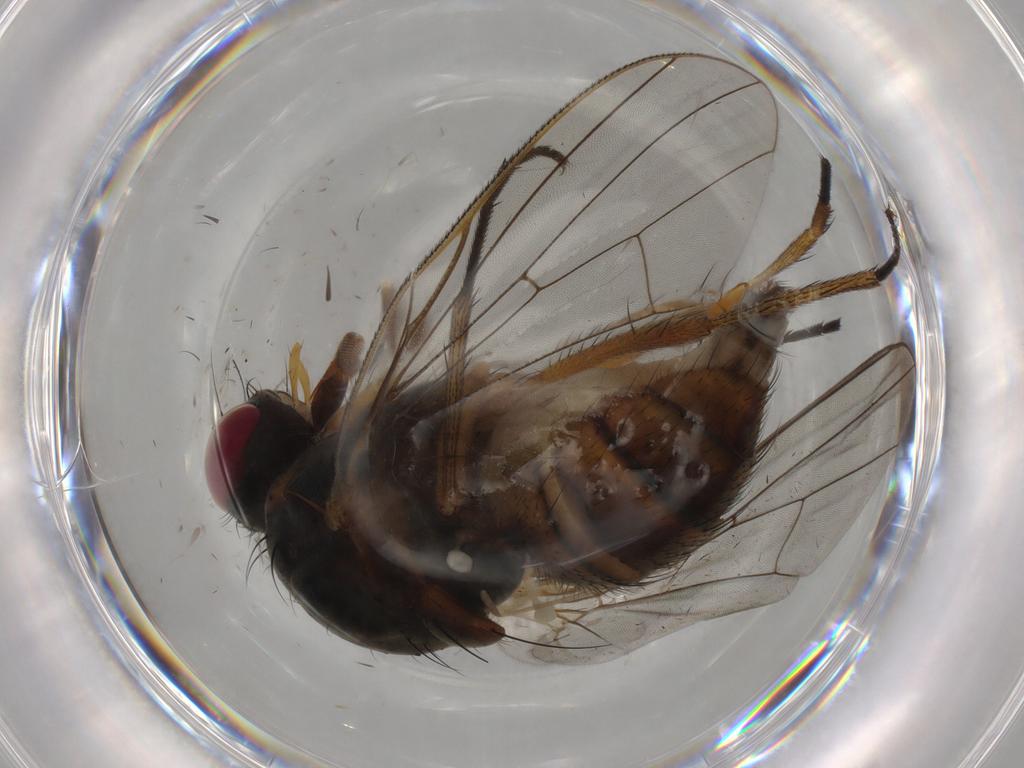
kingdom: Animalia
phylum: Arthropoda
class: Insecta
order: Diptera
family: Anthomyiidae
